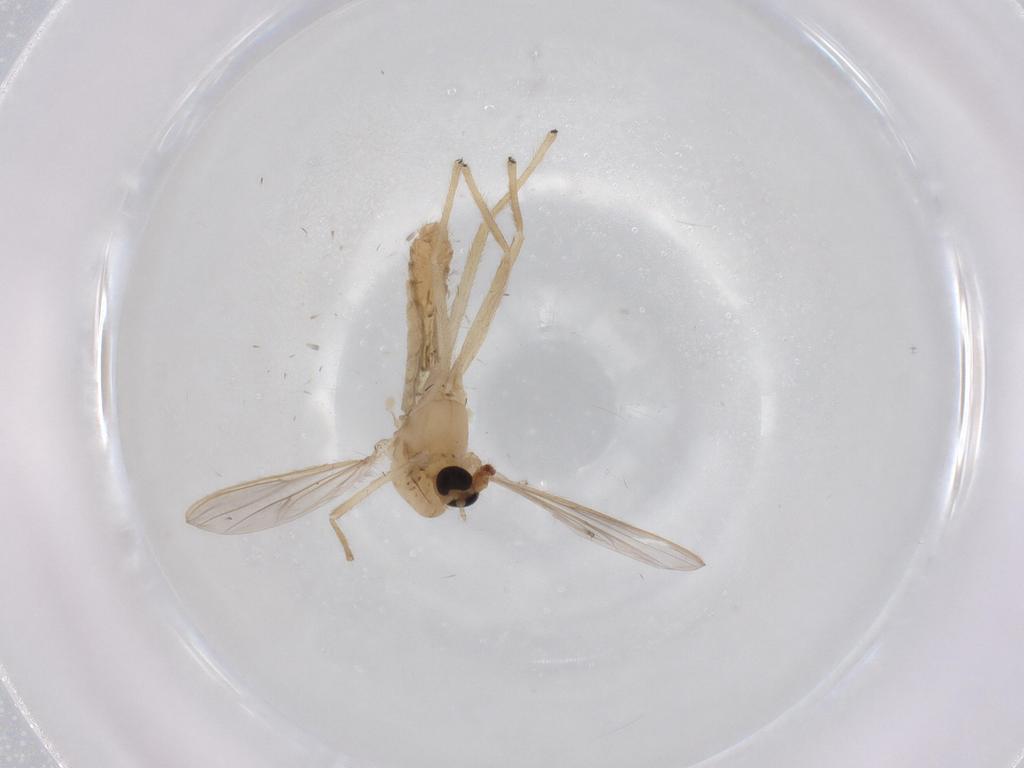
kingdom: Animalia
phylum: Arthropoda
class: Insecta
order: Diptera
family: Chironomidae
